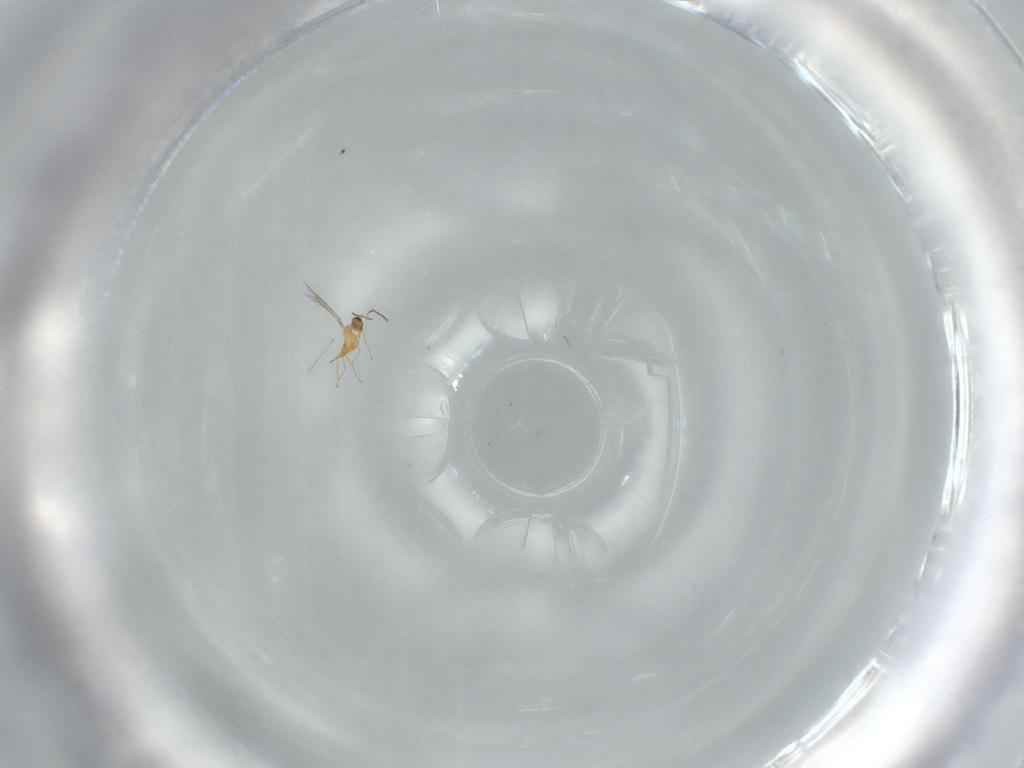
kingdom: Animalia
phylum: Arthropoda
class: Insecta
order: Hymenoptera
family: Mymaridae
